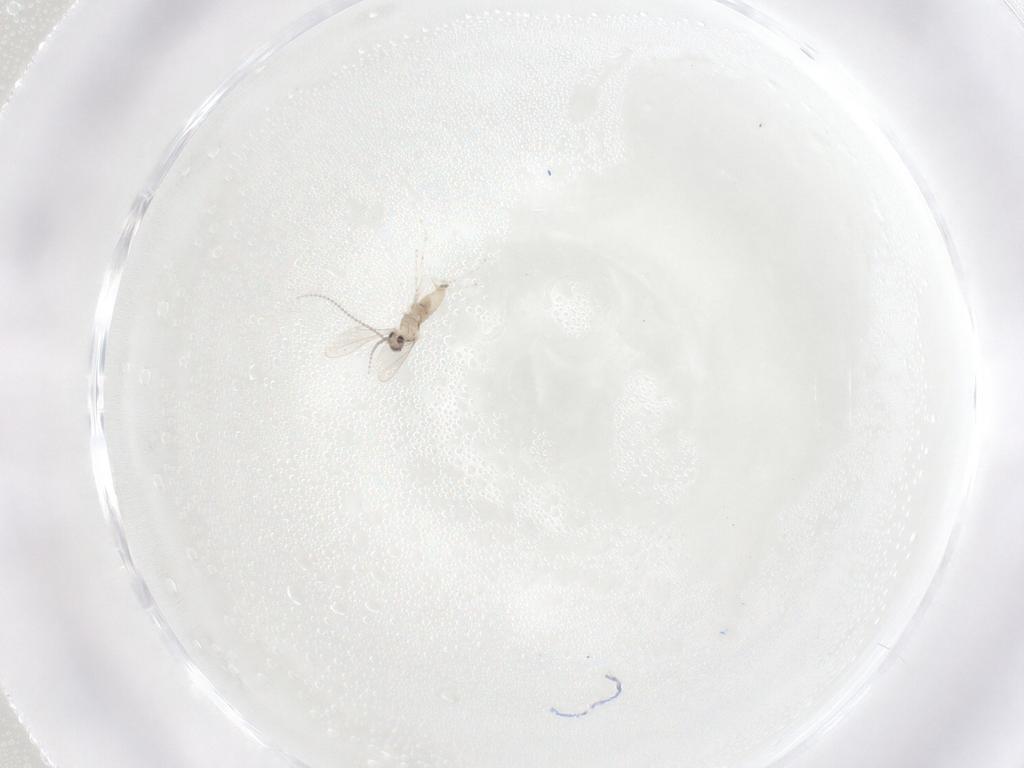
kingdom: Animalia
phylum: Arthropoda
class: Insecta
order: Diptera
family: Cecidomyiidae
